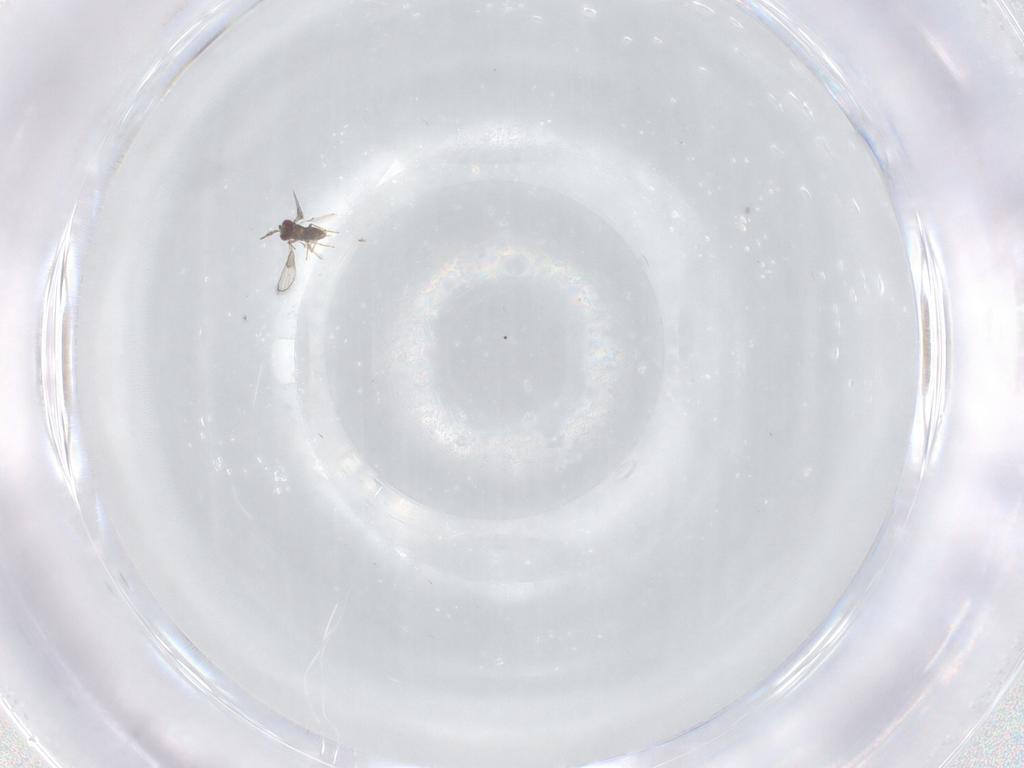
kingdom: Animalia
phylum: Arthropoda
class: Insecta
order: Hymenoptera
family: Trichogrammatidae
